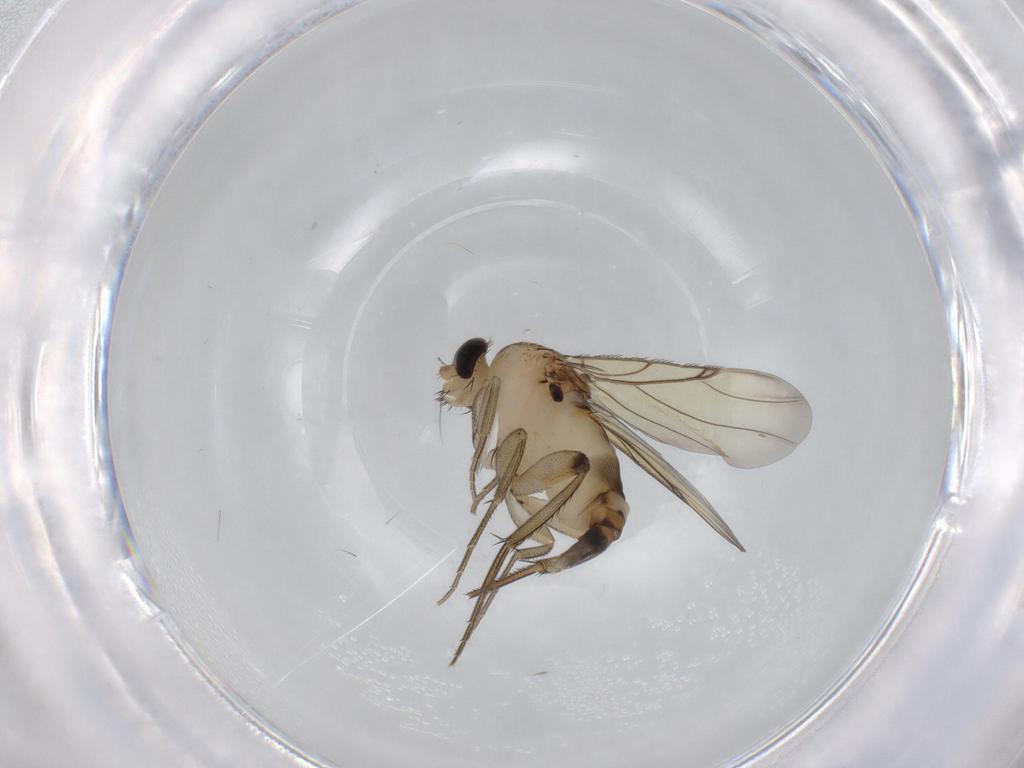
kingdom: Animalia
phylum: Arthropoda
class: Insecta
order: Diptera
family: Phoridae
